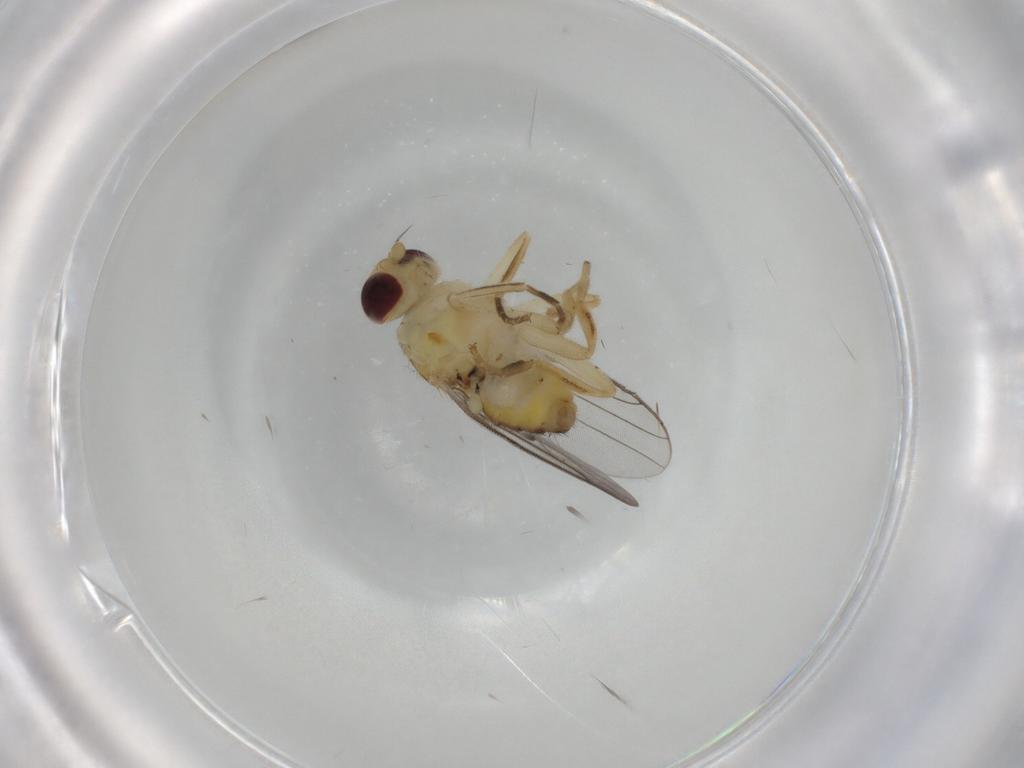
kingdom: Animalia
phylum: Arthropoda
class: Insecta
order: Diptera
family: Chloropidae
